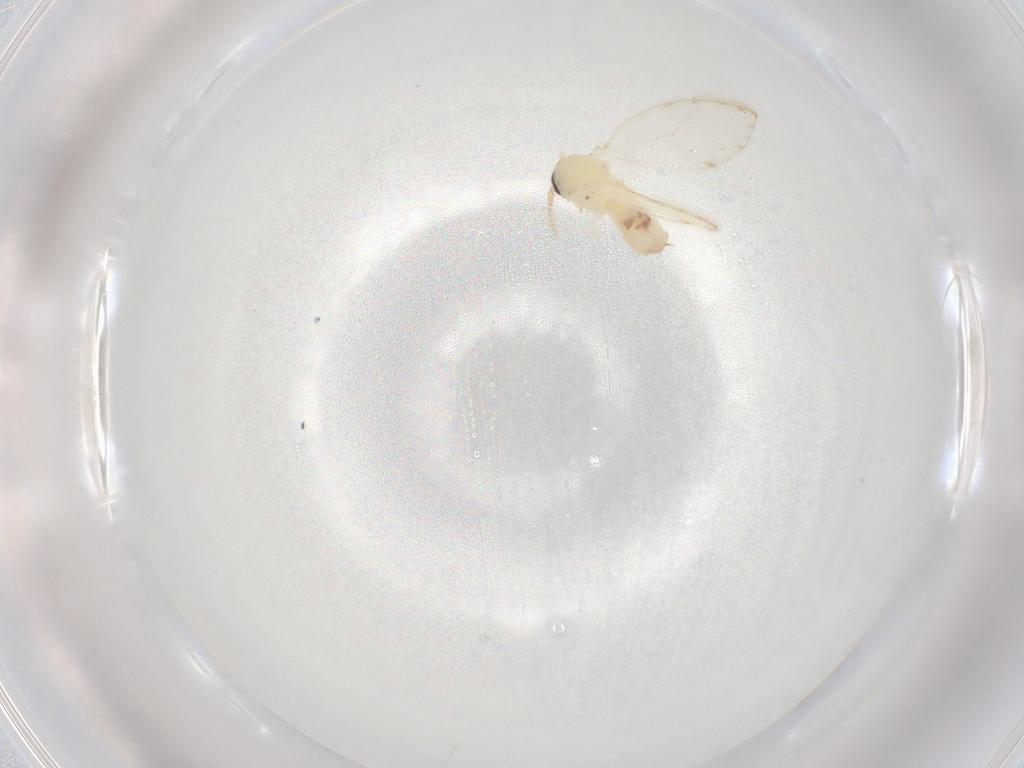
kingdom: Animalia
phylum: Arthropoda
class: Insecta
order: Diptera
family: Psychodidae
